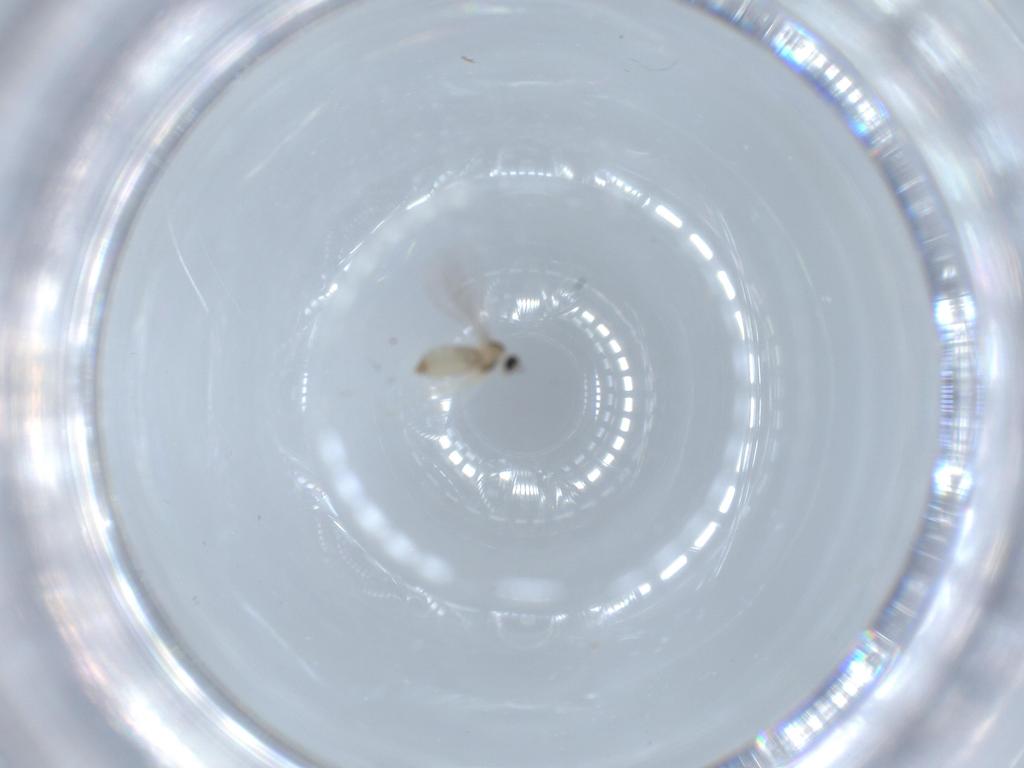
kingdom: Animalia
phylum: Arthropoda
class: Insecta
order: Diptera
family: Cecidomyiidae
